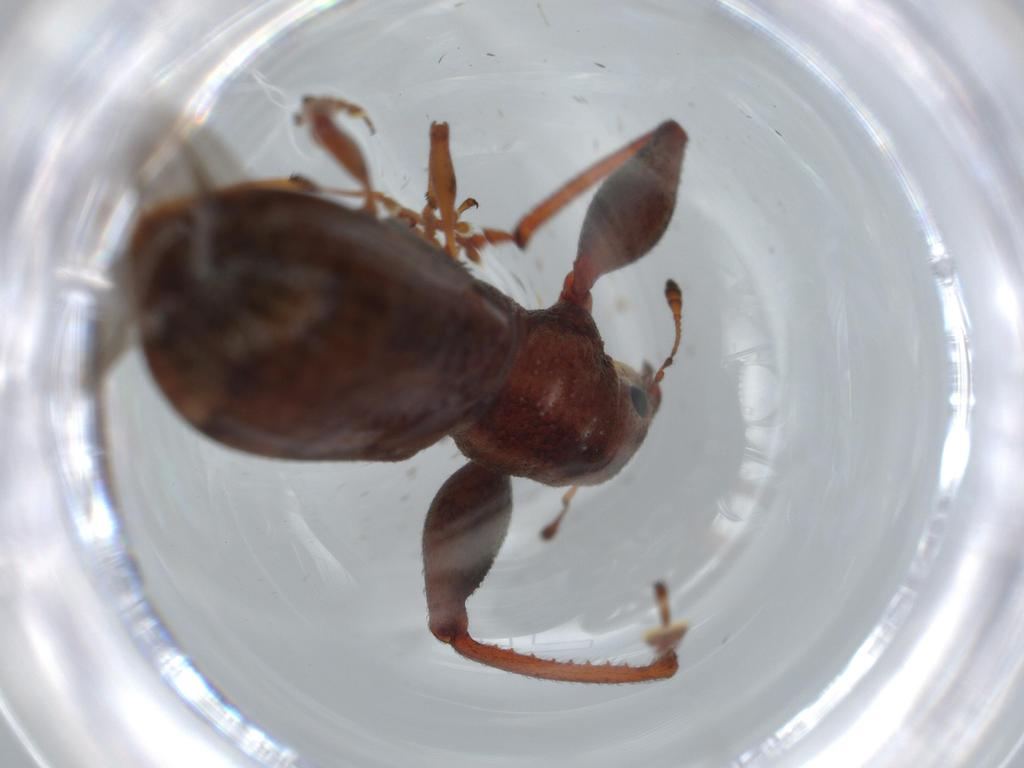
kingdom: Animalia
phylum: Arthropoda
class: Insecta
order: Coleoptera
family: Curculionidae
